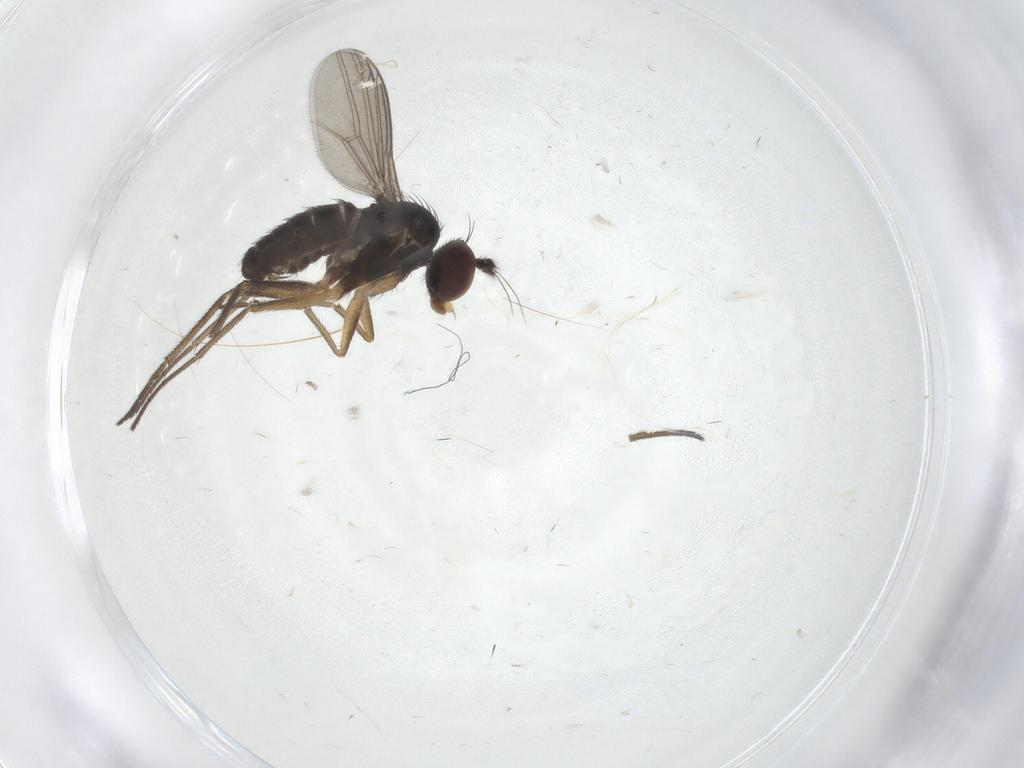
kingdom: Animalia
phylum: Arthropoda
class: Insecta
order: Diptera
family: Dolichopodidae
